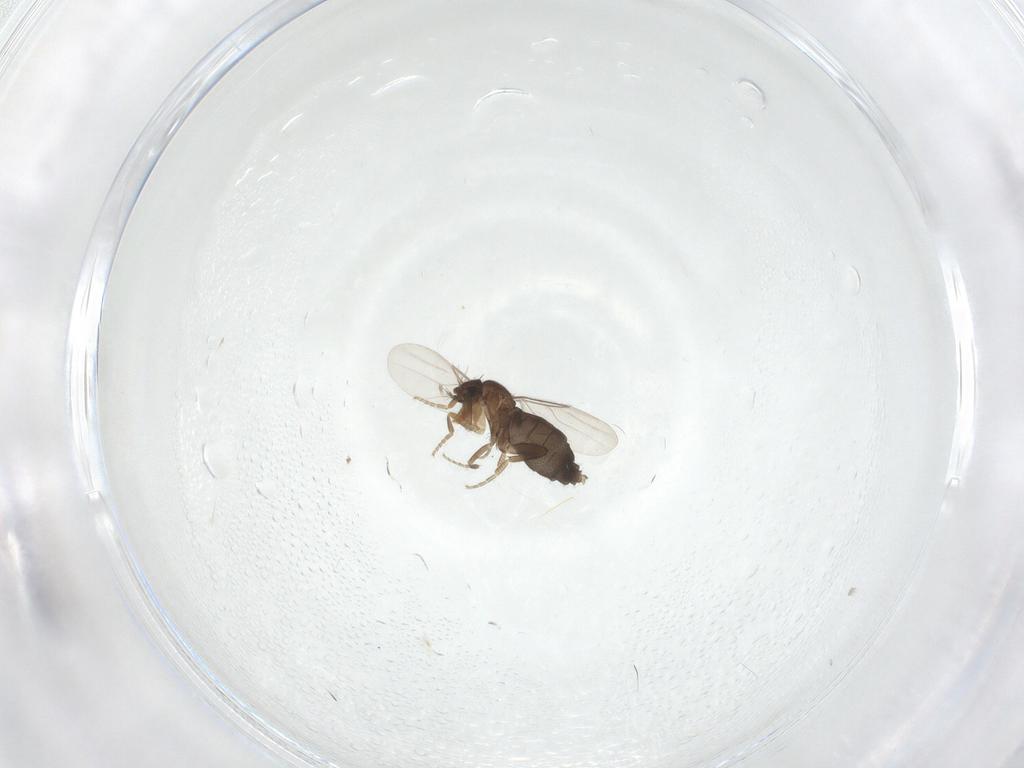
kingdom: Animalia
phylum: Arthropoda
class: Insecta
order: Diptera
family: Phoridae
